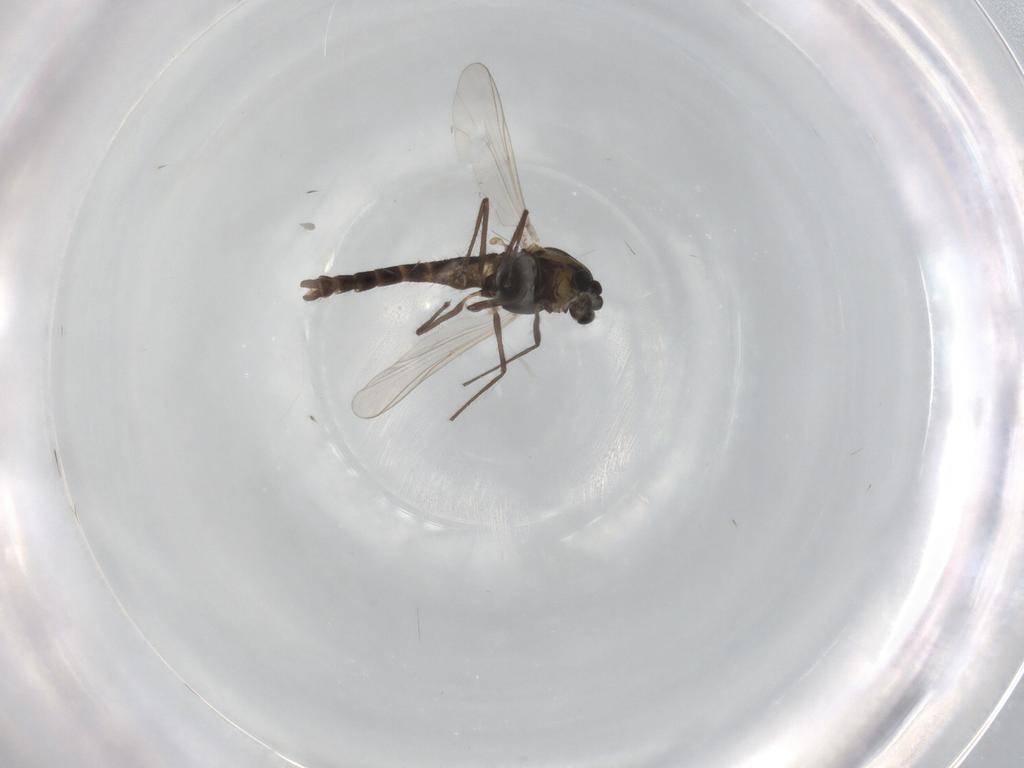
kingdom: Animalia
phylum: Arthropoda
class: Insecta
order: Diptera
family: Chironomidae
